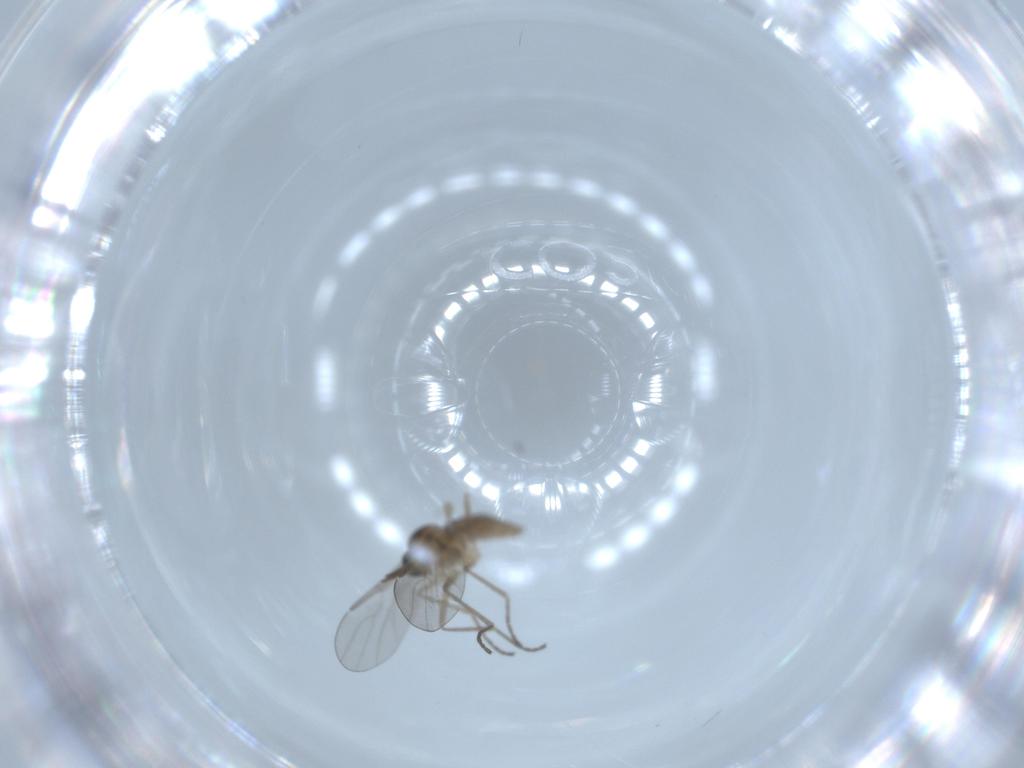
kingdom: Animalia
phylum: Arthropoda
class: Insecta
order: Diptera
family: Cecidomyiidae
